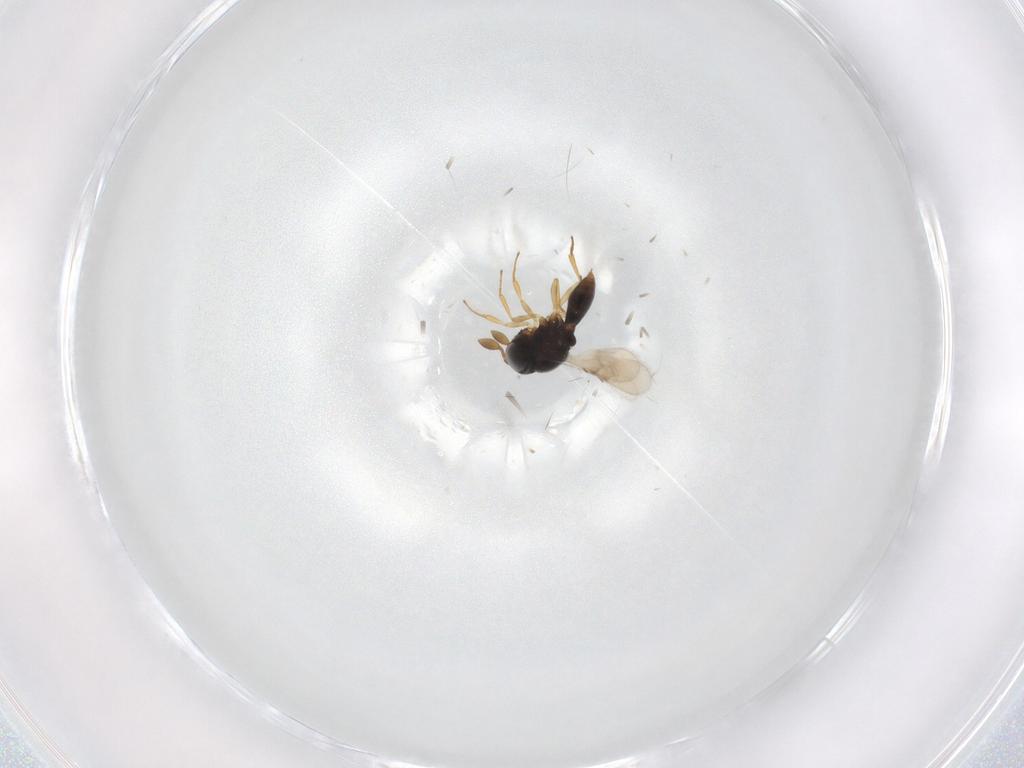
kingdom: Animalia
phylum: Arthropoda
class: Insecta
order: Hymenoptera
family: Scelionidae
